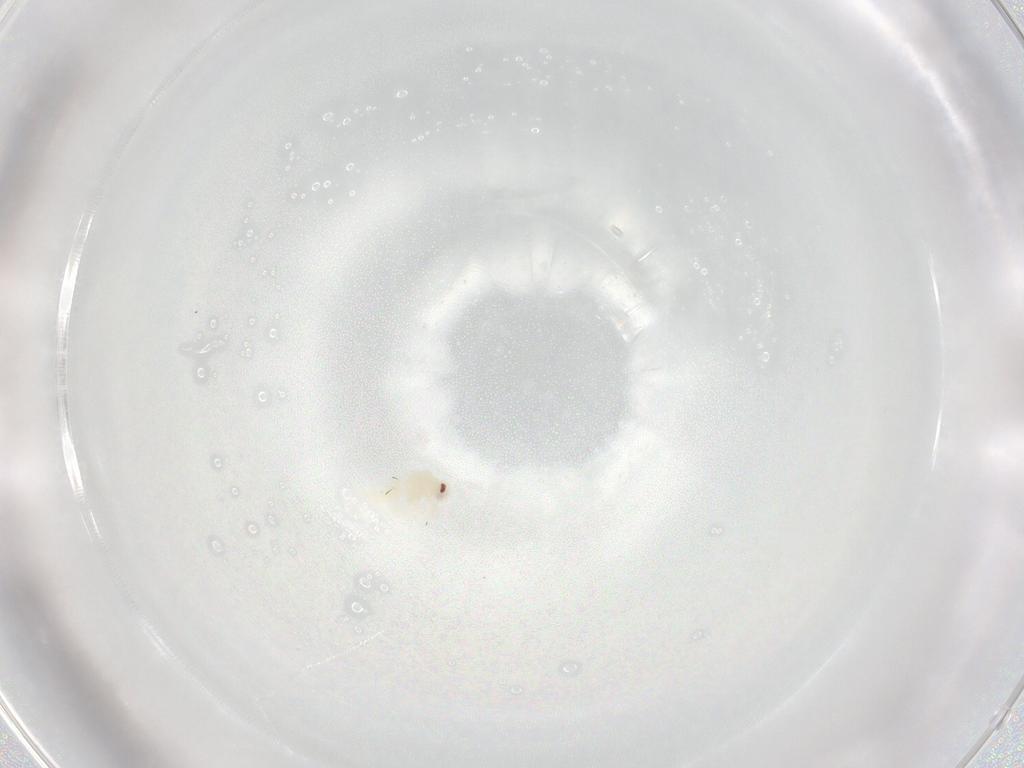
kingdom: Animalia
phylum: Arthropoda
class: Insecta
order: Hemiptera
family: Aleyrodidae
